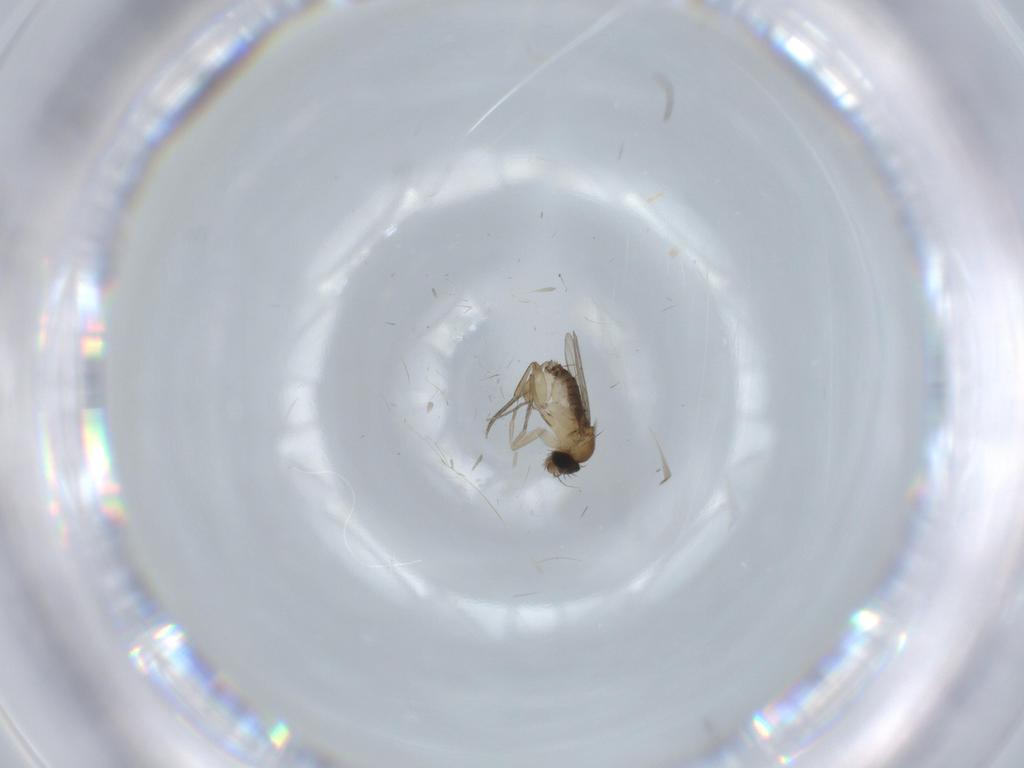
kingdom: Animalia
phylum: Arthropoda
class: Insecta
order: Diptera
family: Phoridae
